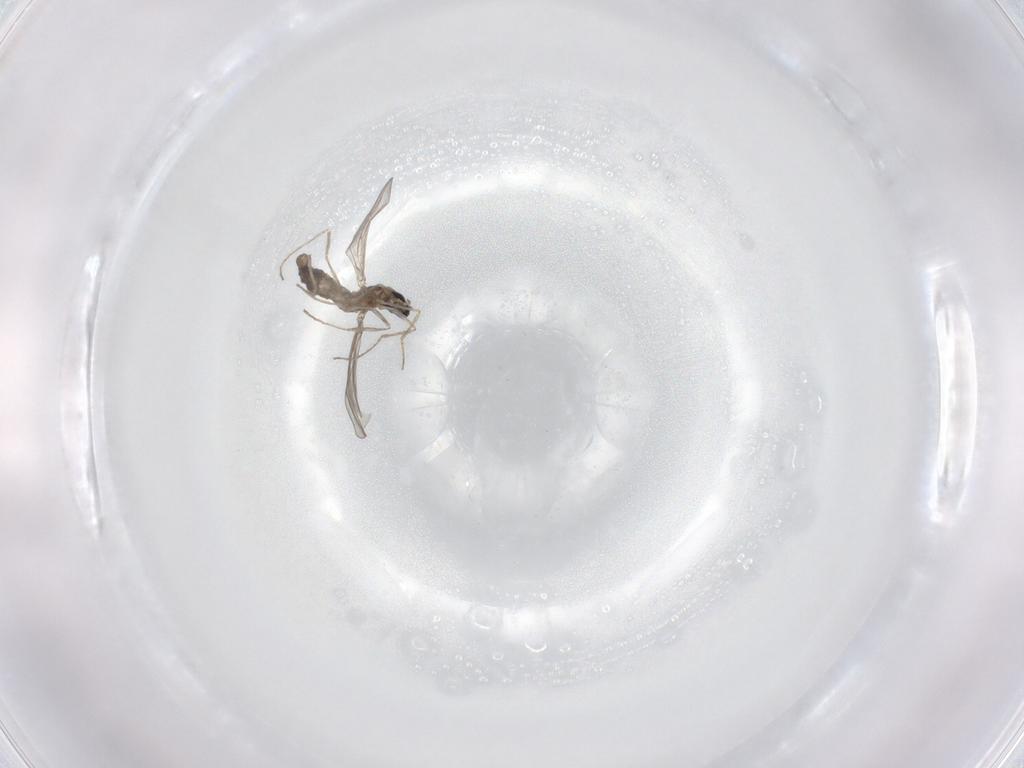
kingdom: Animalia
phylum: Arthropoda
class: Insecta
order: Diptera
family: Cecidomyiidae
